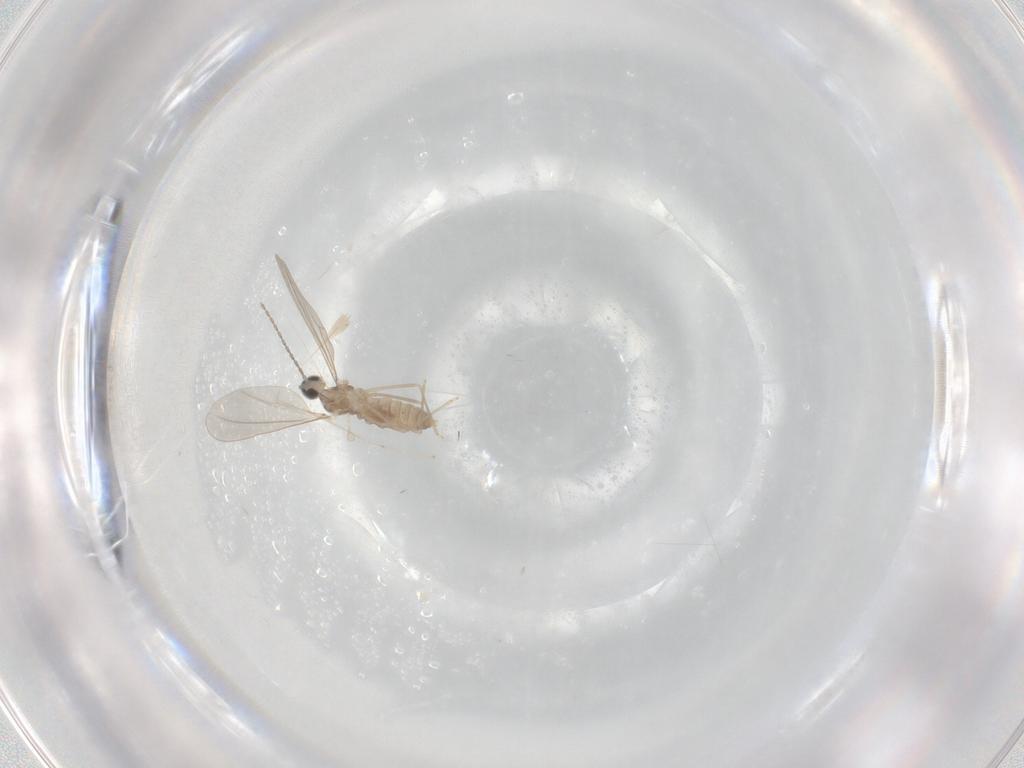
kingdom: Animalia
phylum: Arthropoda
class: Insecta
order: Diptera
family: Cecidomyiidae
